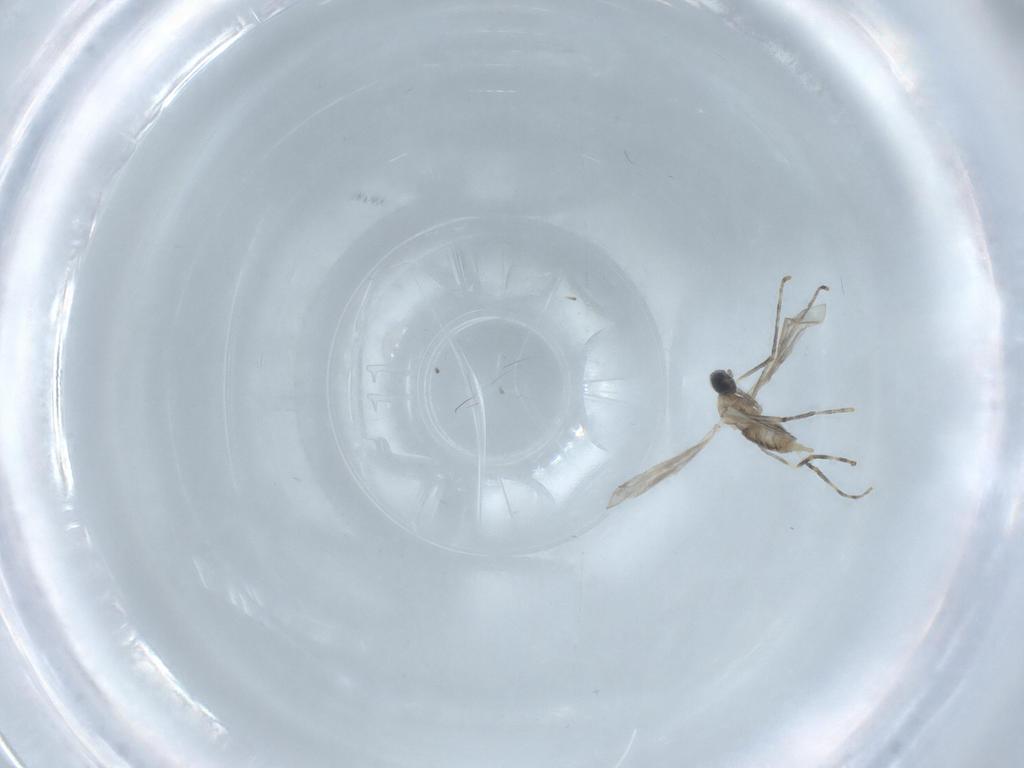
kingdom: Animalia
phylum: Arthropoda
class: Insecta
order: Diptera
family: Cecidomyiidae
